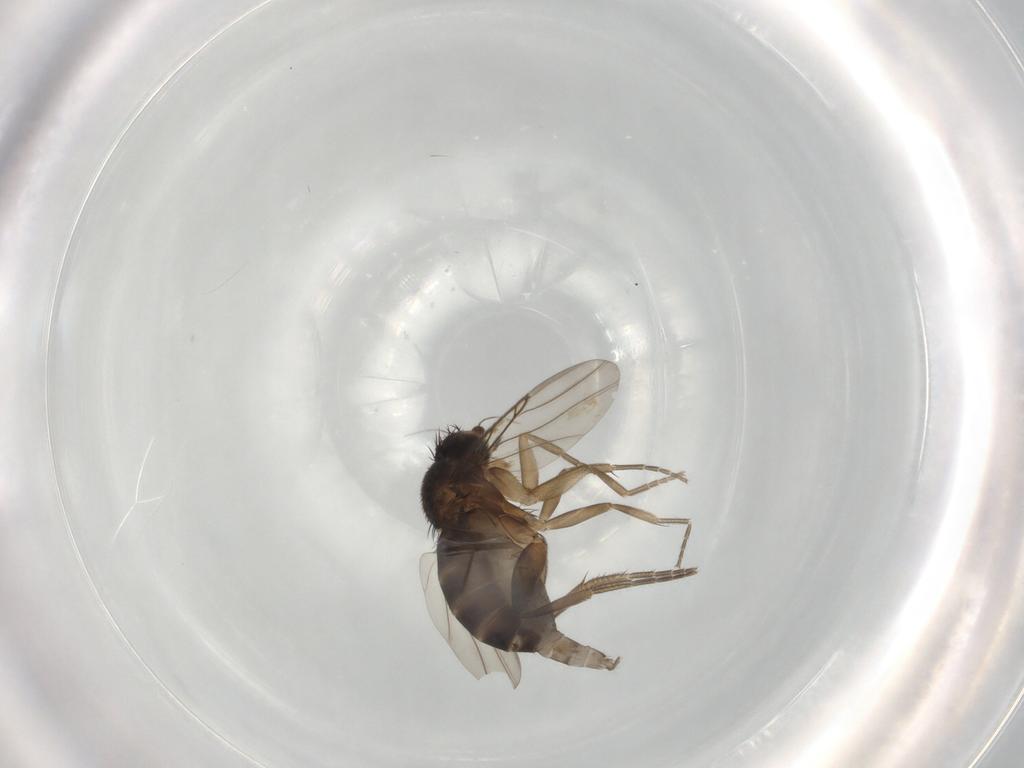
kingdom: Animalia
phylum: Arthropoda
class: Insecta
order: Diptera
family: Phoridae
